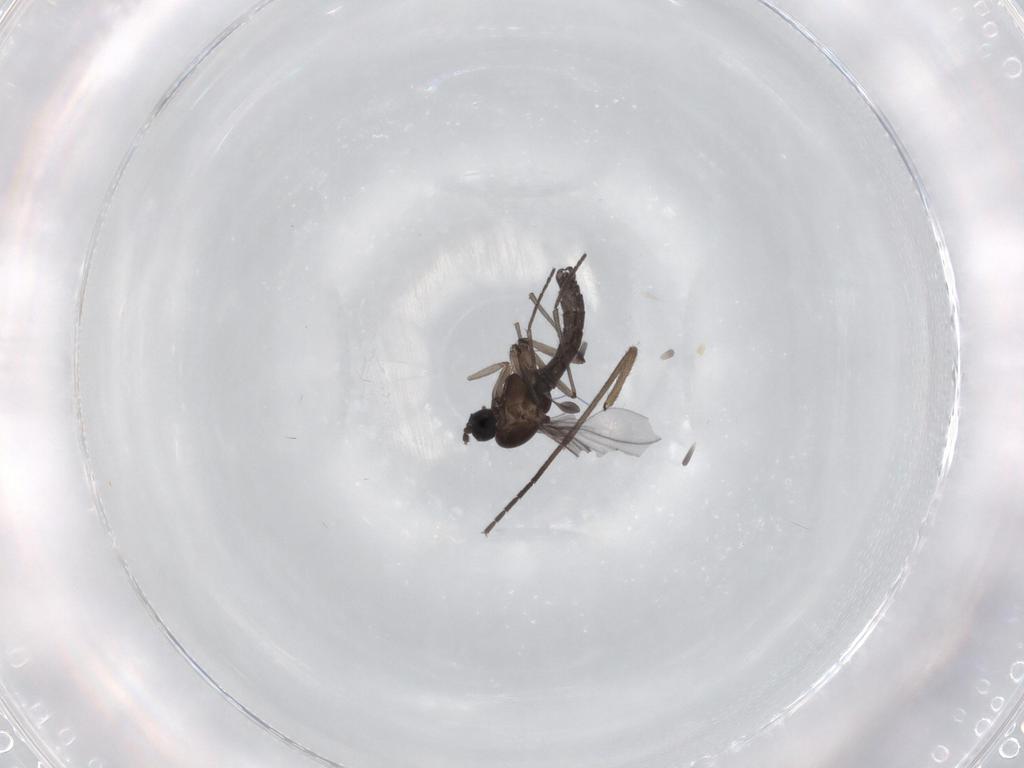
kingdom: Animalia
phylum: Arthropoda
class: Insecta
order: Diptera
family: Sciaridae
